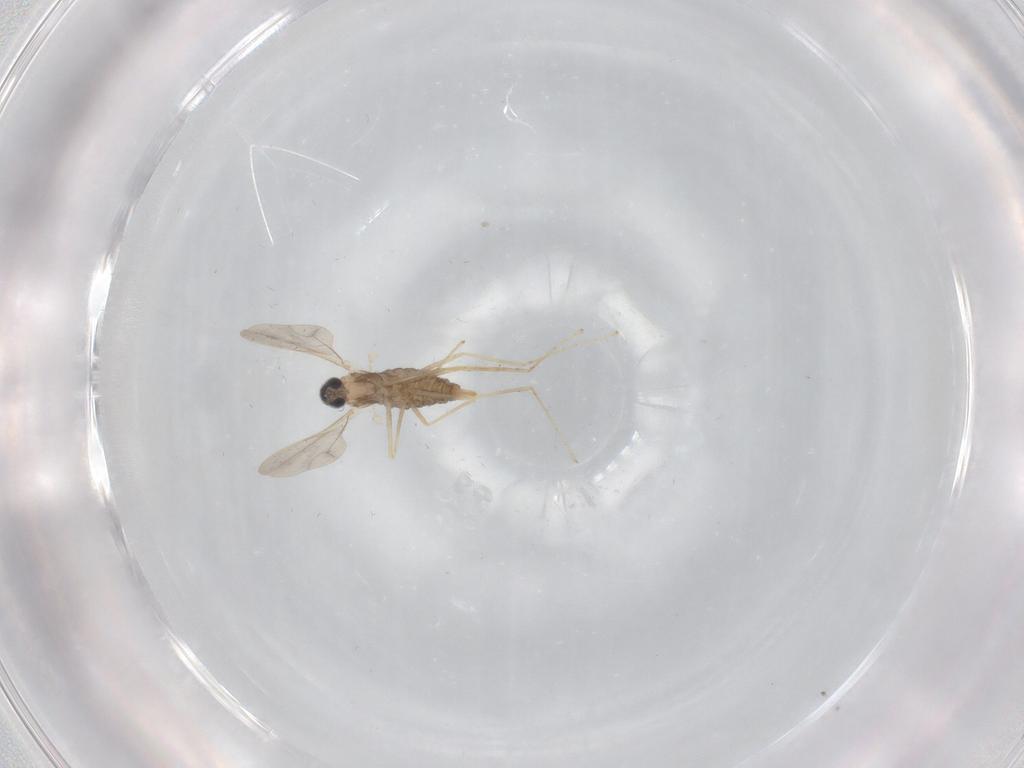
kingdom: Animalia
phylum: Arthropoda
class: Insecta
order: Diptera
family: Cecidomyiidae
